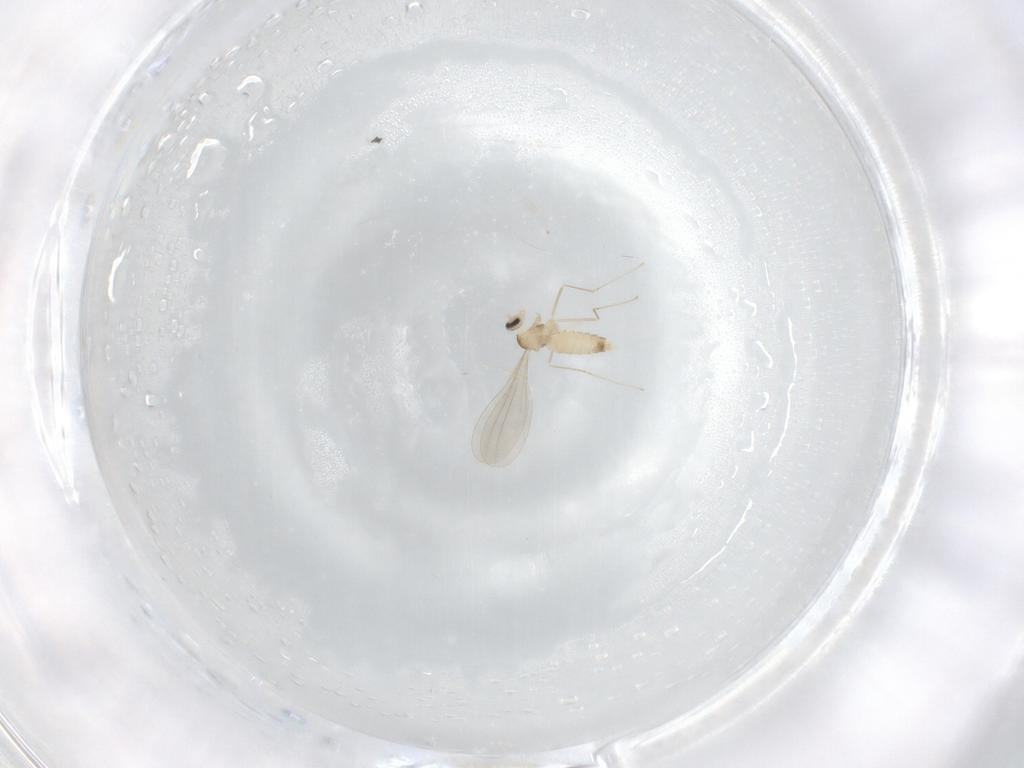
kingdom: Animalia
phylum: Arthropoda
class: Insecta
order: Diptera
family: Cecidomyiidae
